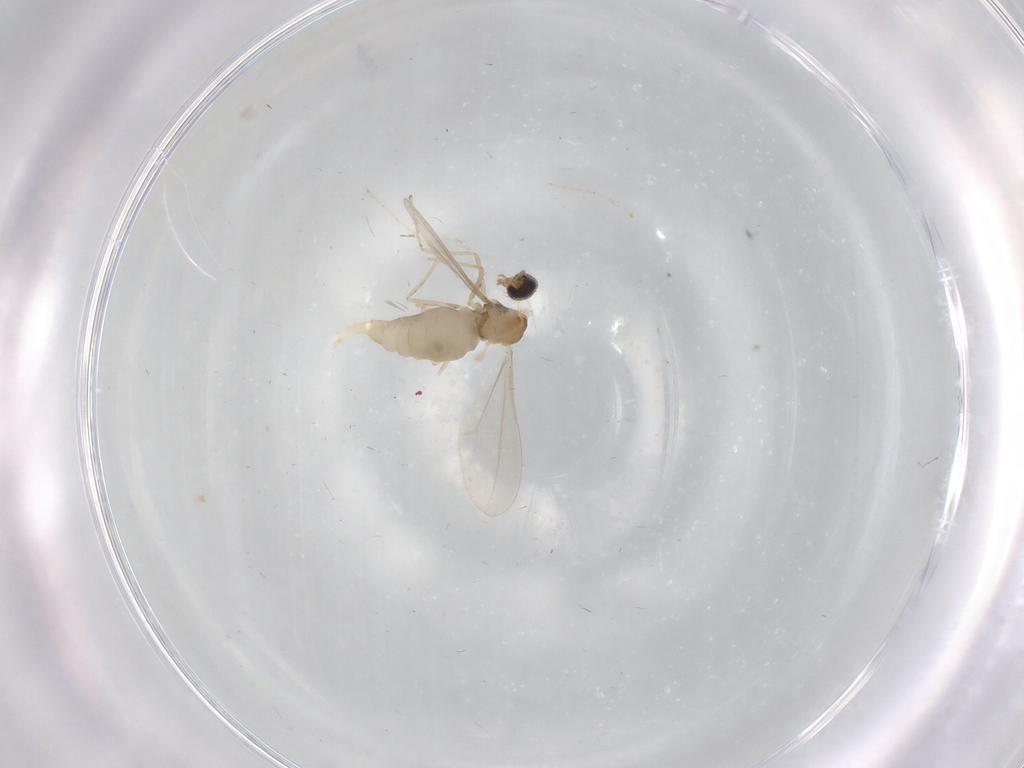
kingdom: Animalia
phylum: Arthropoda
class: Insecta
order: Diptera
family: Cecidomyiidae
